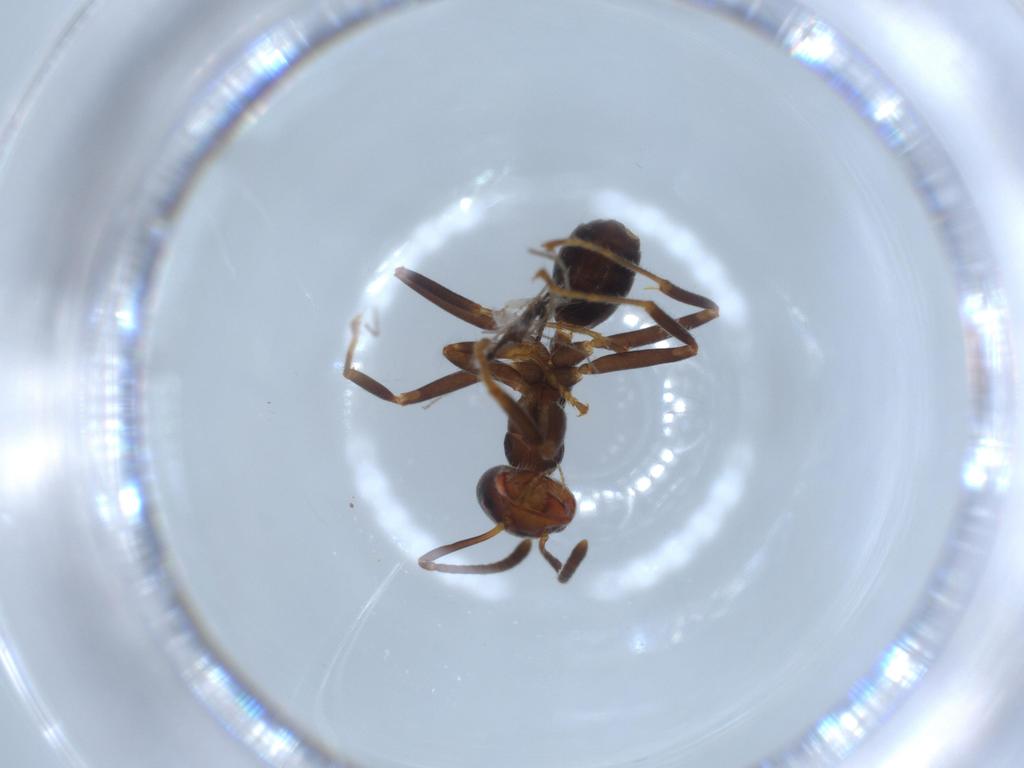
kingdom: Animalia
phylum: Arthropoda
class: Insecta
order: Hymenoptera
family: Formicidae
